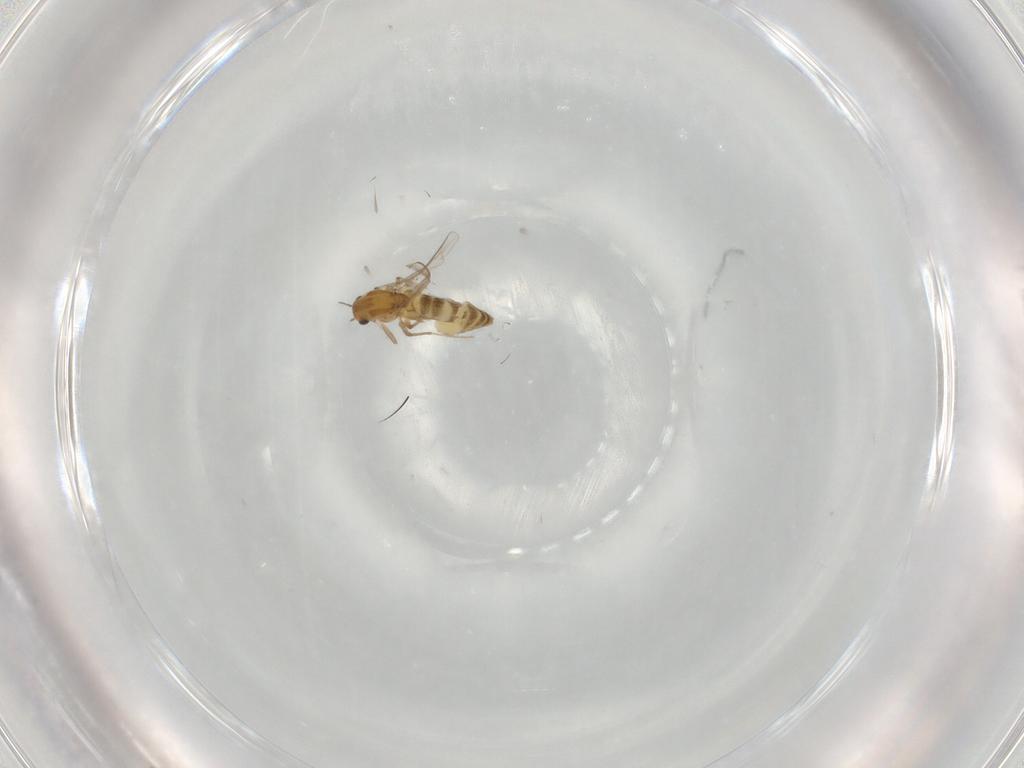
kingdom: Animalia
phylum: Arthropoda
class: Insecta
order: Diptera
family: Chironomidae
